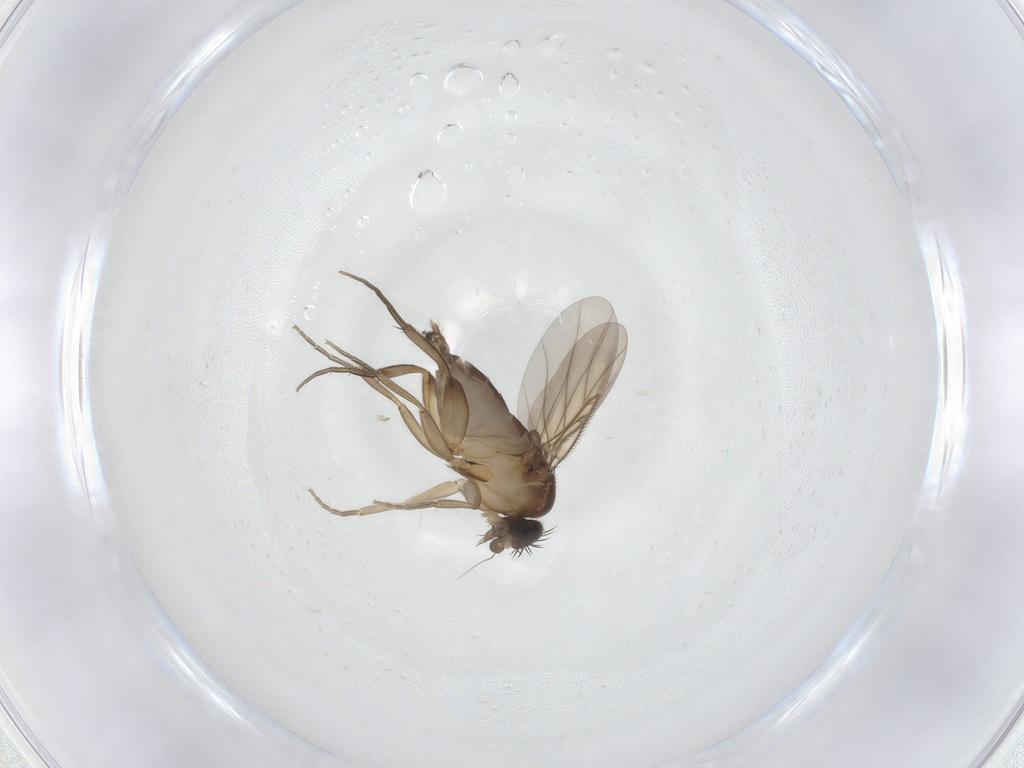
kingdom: Animalia
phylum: Arthropoda
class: Insecta
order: Diptera
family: Phoridae
